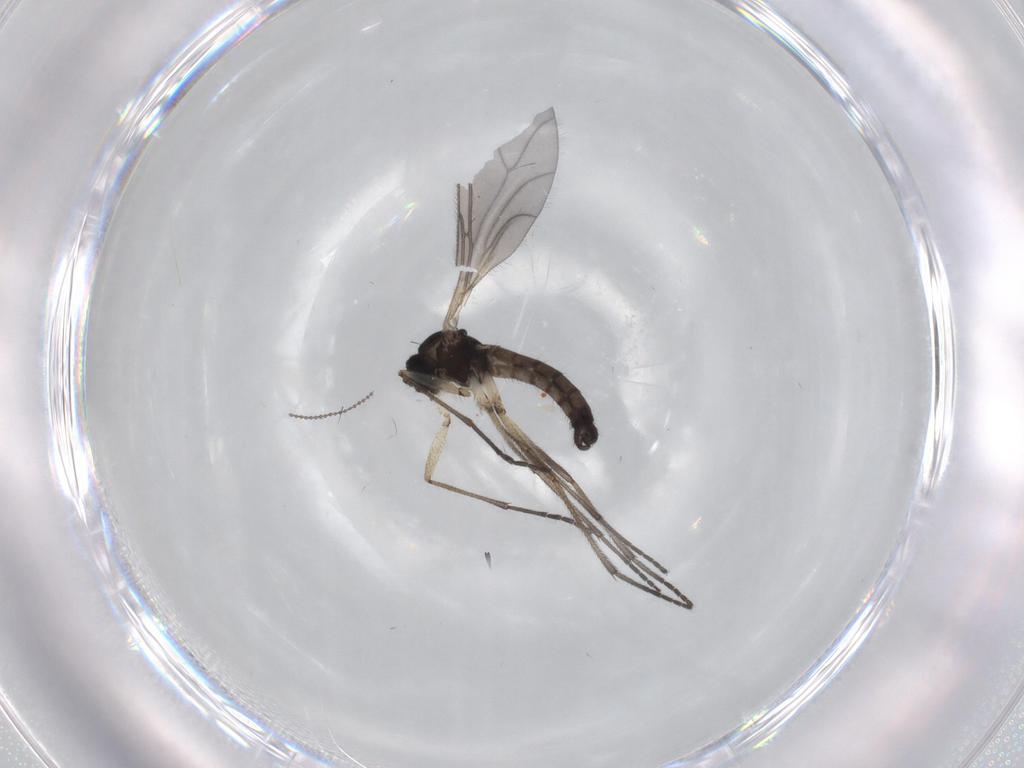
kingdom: Animalia
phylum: Arthropoda
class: Insecta
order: Diptera
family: Sciaridae
